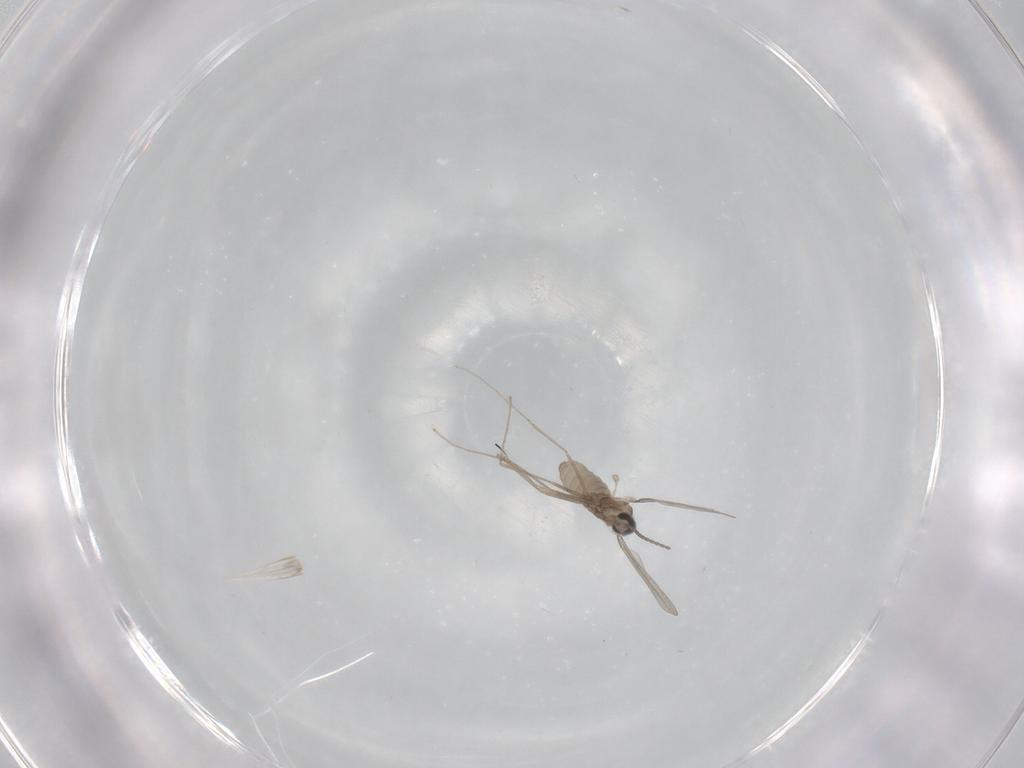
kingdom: Animalia
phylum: Arthropoda
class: Insecta
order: Diptera
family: Cecidomyiidae
